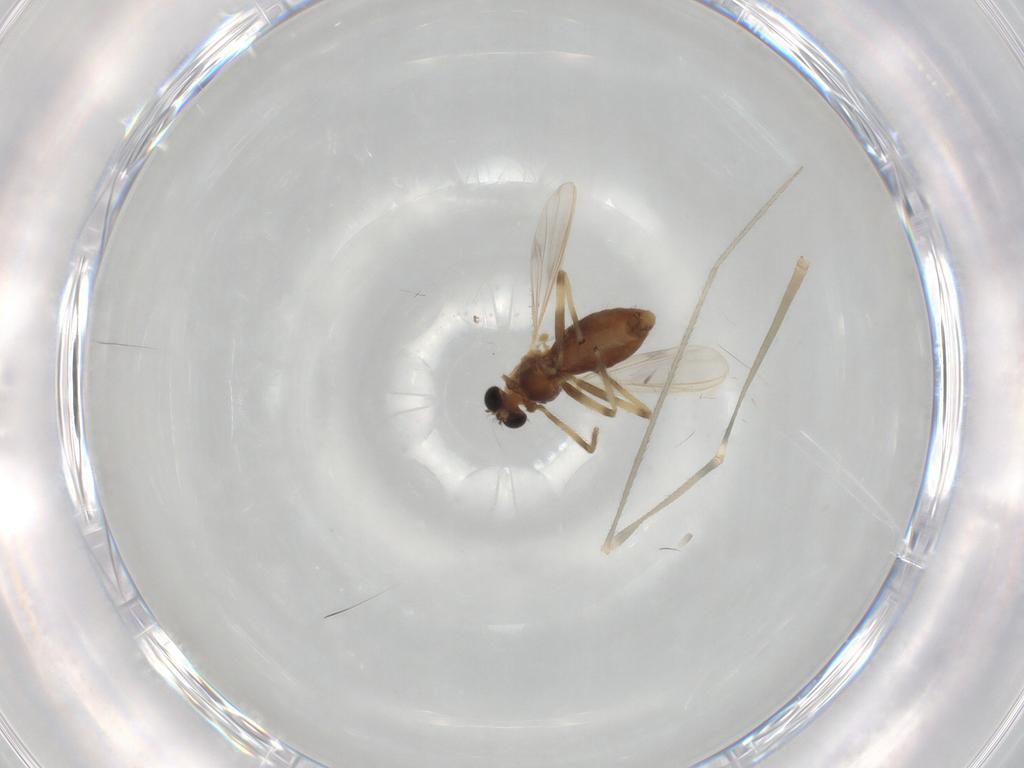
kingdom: Animalia
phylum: Arthropoda
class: Insecta
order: Diptera
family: Chironomidae
